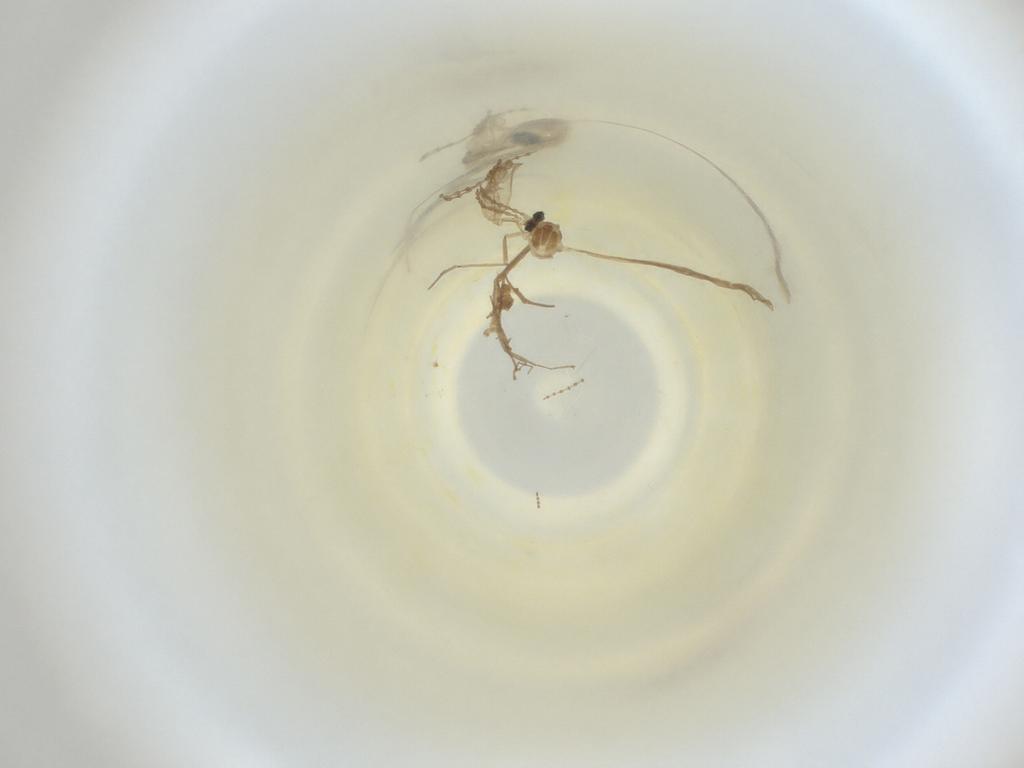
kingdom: Animalia
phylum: Arthropoda
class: Insecta
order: Diptera
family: Cecidomyiidae
